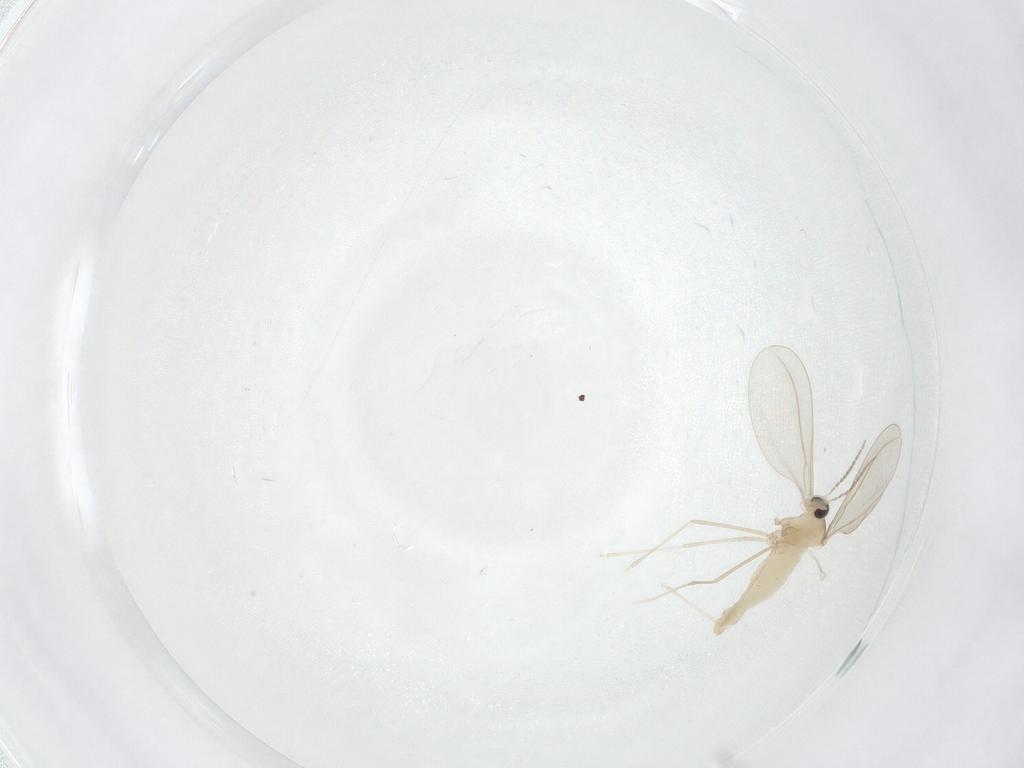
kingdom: Animalia
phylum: Arthropoda
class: Insecta
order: Diptera
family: Cecidomyiidae
